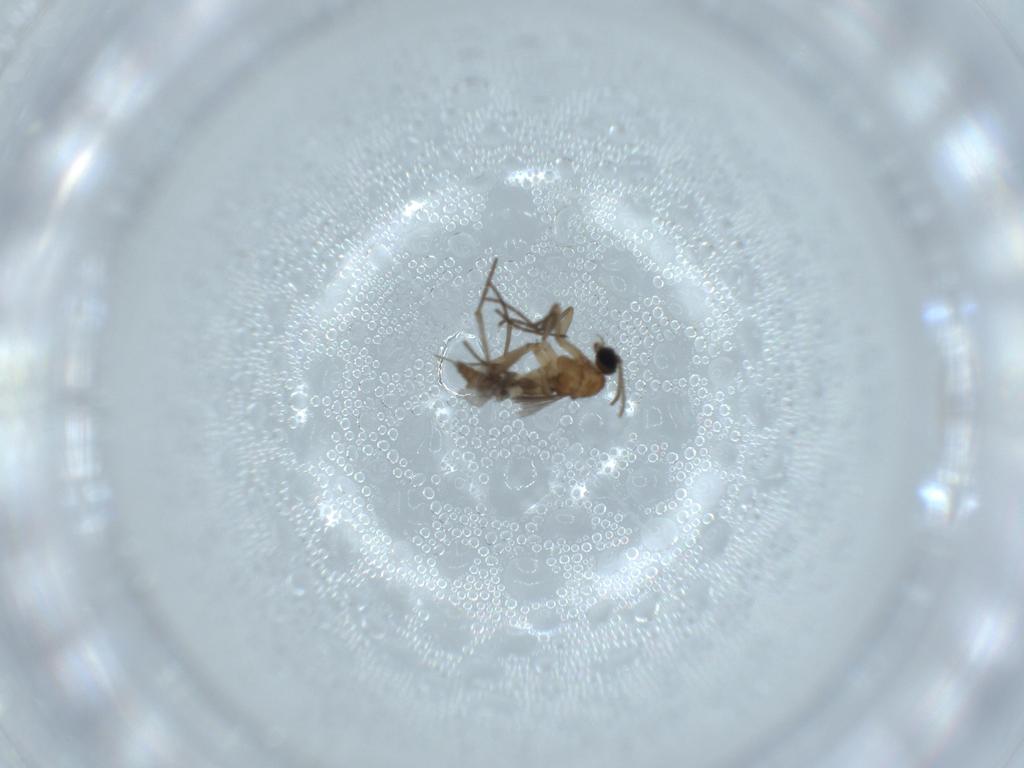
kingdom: Animalia
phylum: Arthropoda
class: Insecta
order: Diptera
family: Sciaridae
